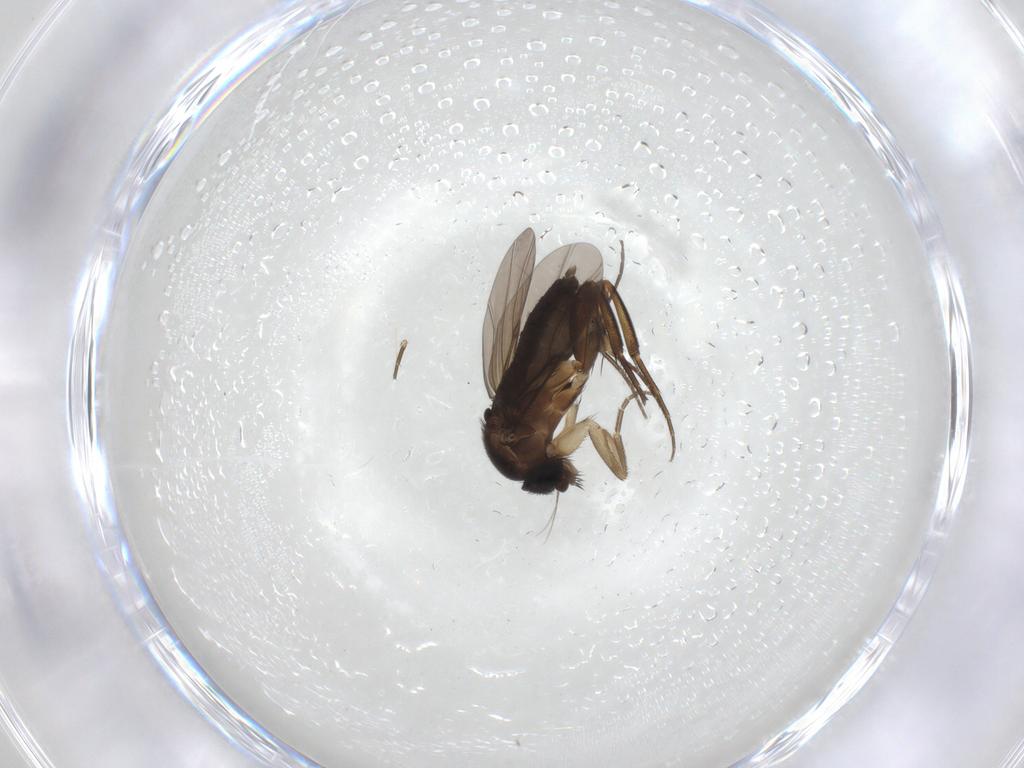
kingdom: Animalia
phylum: Arthropoda
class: Insecta
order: Diptera
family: Phoridae
